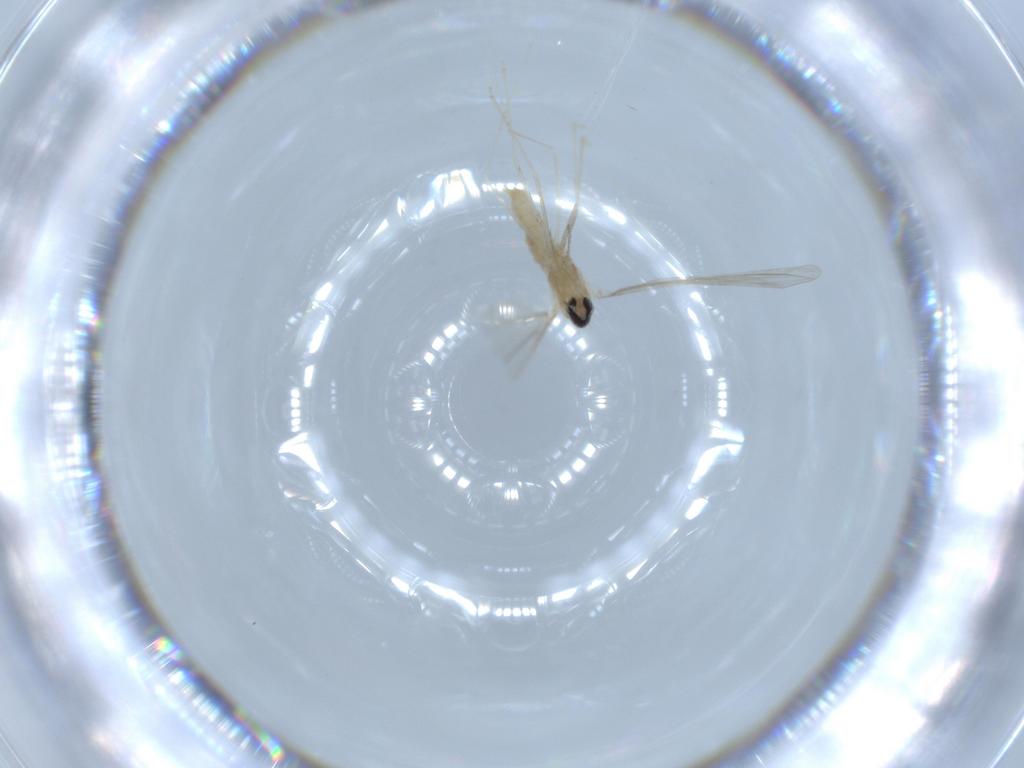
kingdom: Animalia
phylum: Arthropoda
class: Insecta
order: Diptera
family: Phoridae
